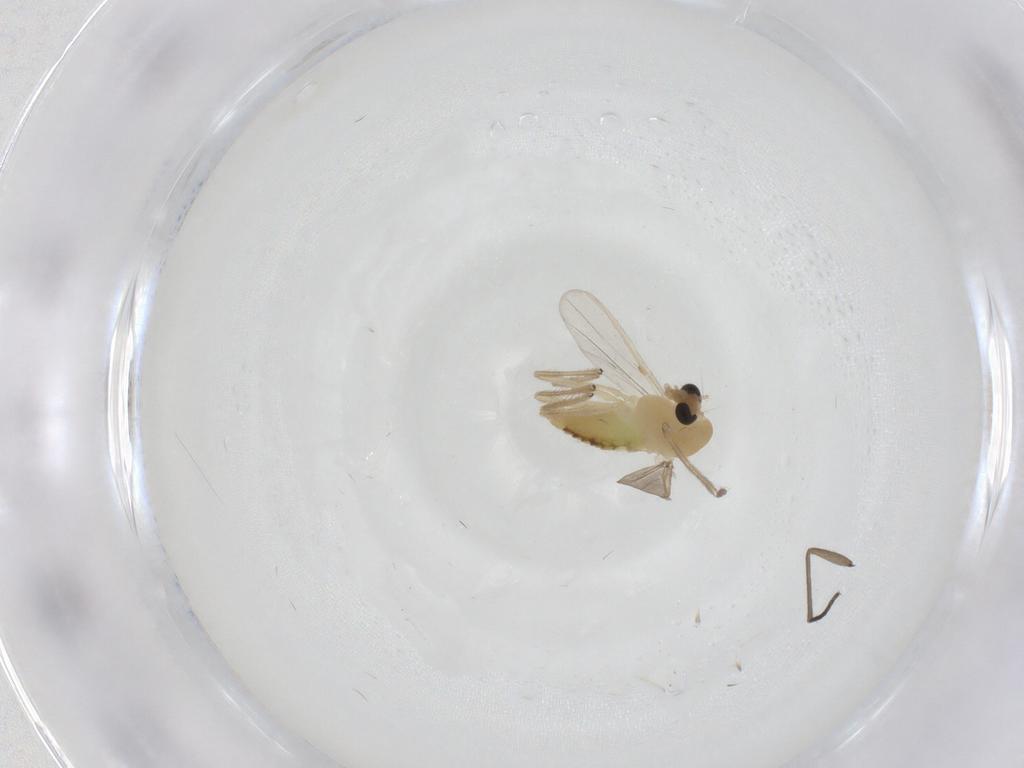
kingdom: Animalia
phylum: Arthropoda
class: Insecta
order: Diptera
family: Chironomidae
